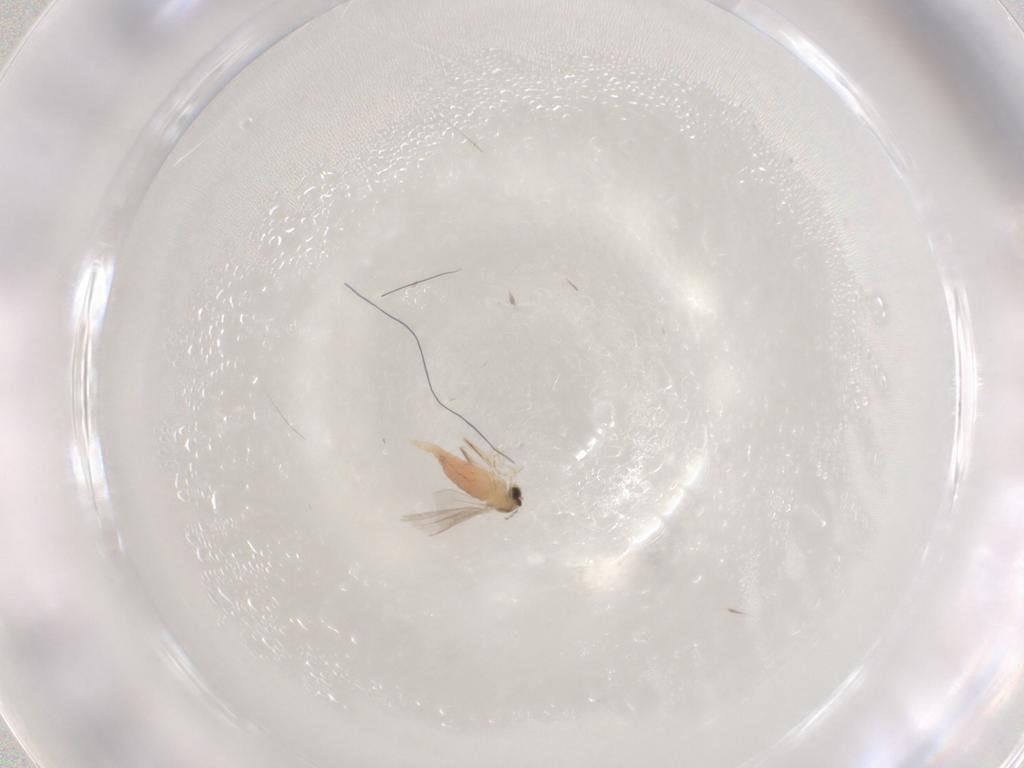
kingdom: Animalia
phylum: Arthropoda
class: Insecta
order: Diptera
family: Cecidomyiidae
